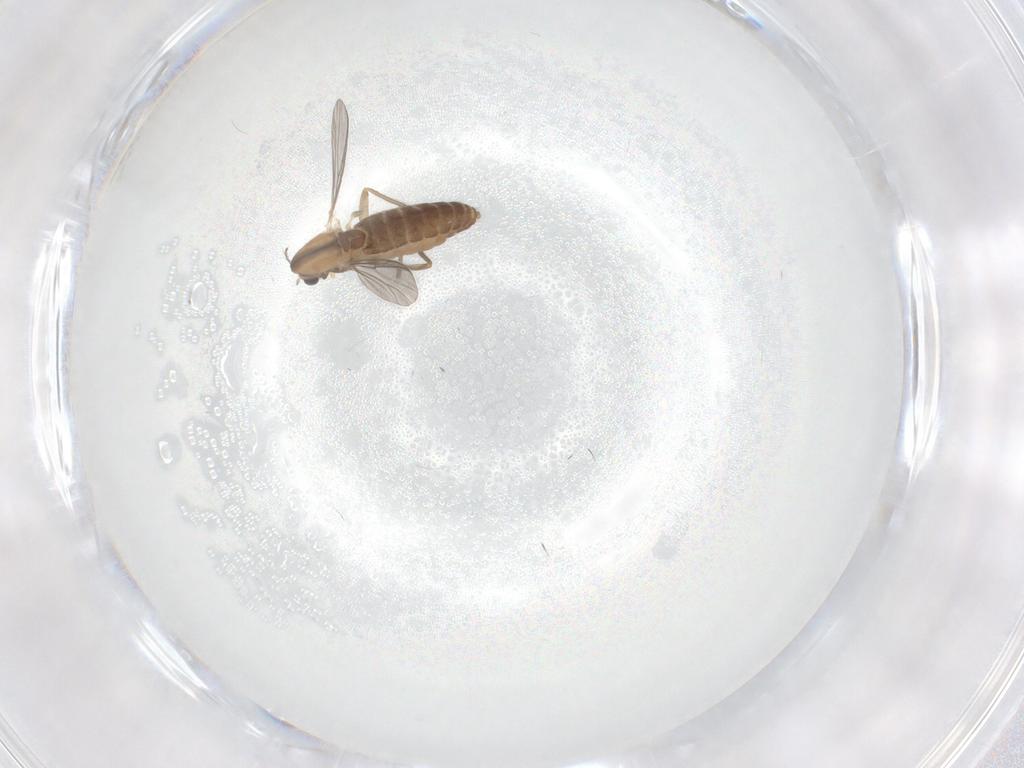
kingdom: Animalia
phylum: Arthropoda
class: Insecta
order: Diptera
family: Chironomidae
